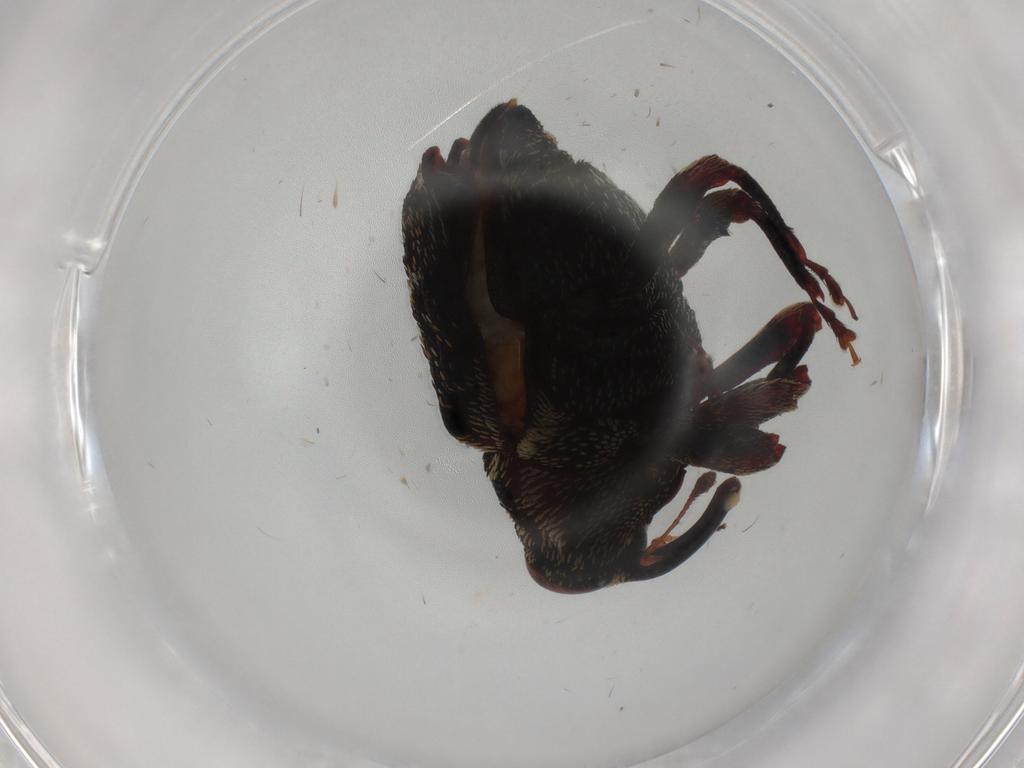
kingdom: Animalia
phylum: Arthropoda
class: Insecta
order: Coleoptera
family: Curculionidae
